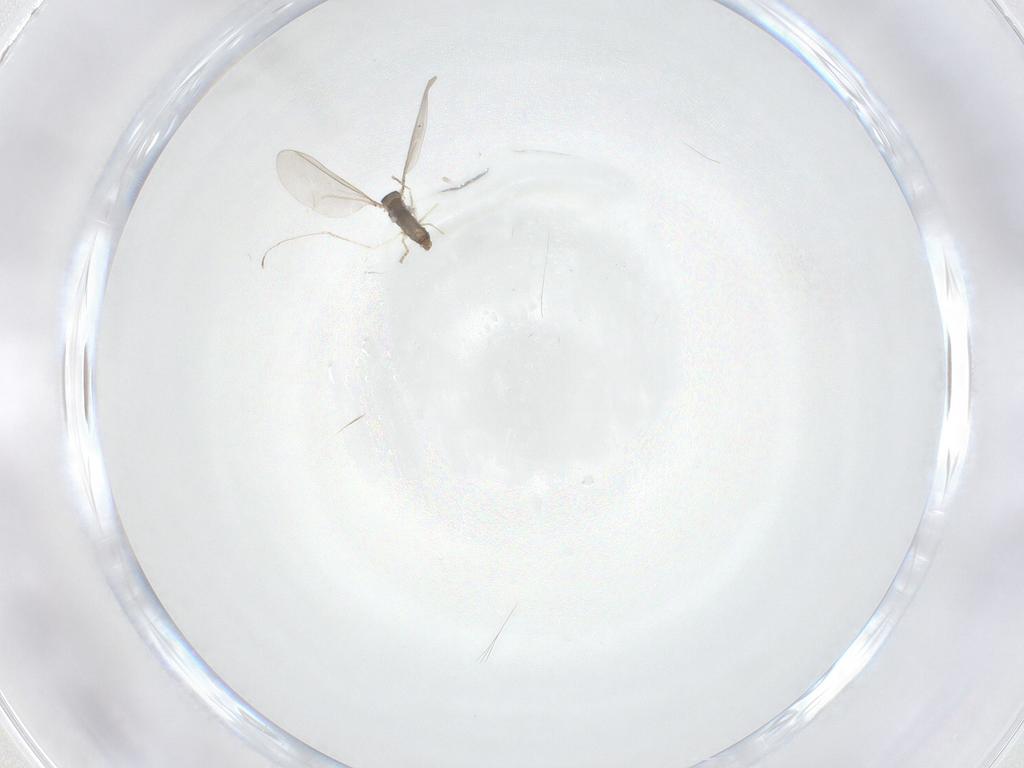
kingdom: Animalia
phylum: Arthropoda
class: Insecta
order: Diptera
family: Cecidomyiidae
